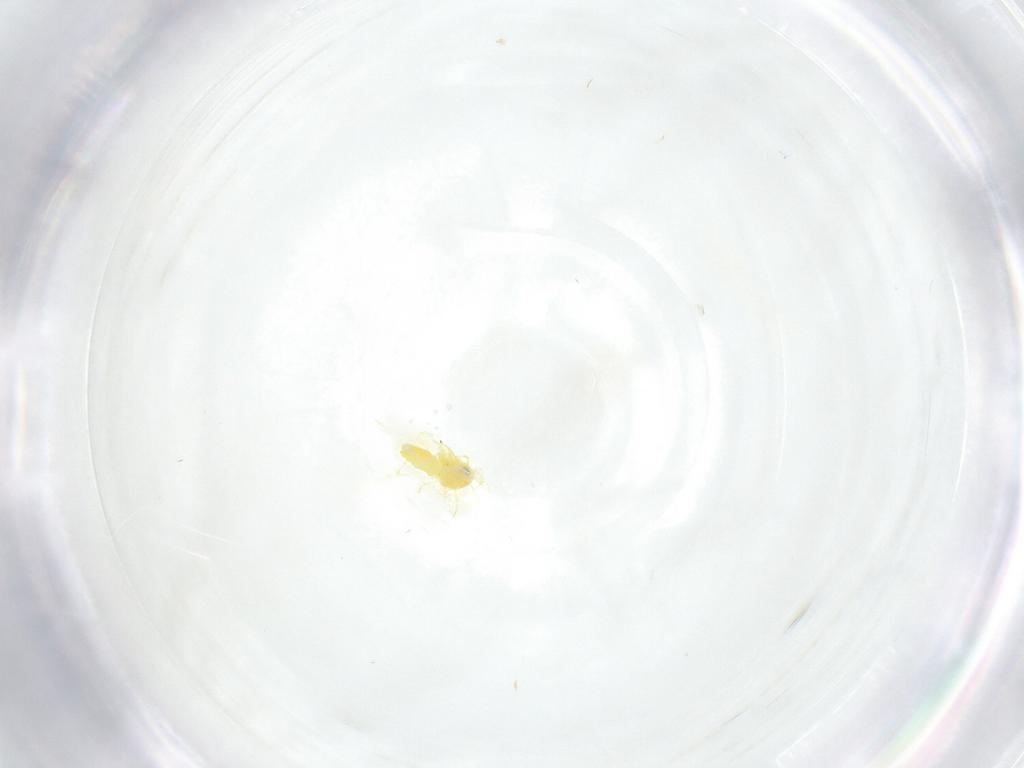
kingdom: Animalia
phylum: Arthropoda
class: Insecta
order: Hemiptera
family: Aleyrodidae
